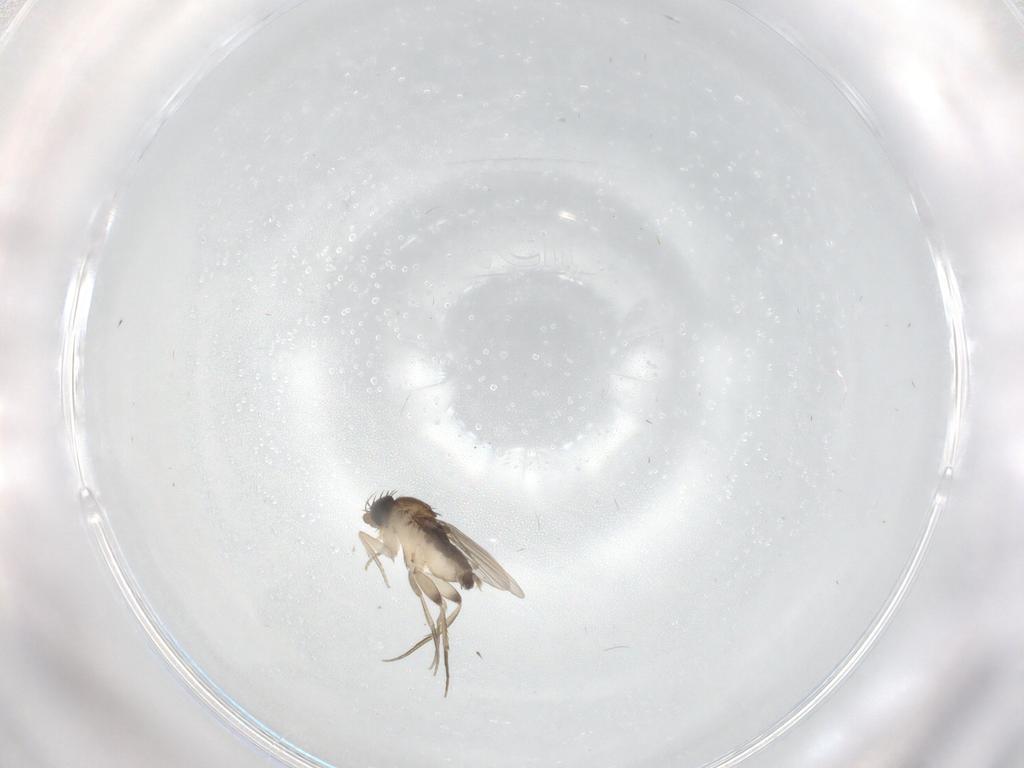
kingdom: Animalia
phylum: Arthropoda
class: Insecta
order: Diptera
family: Phoridae
